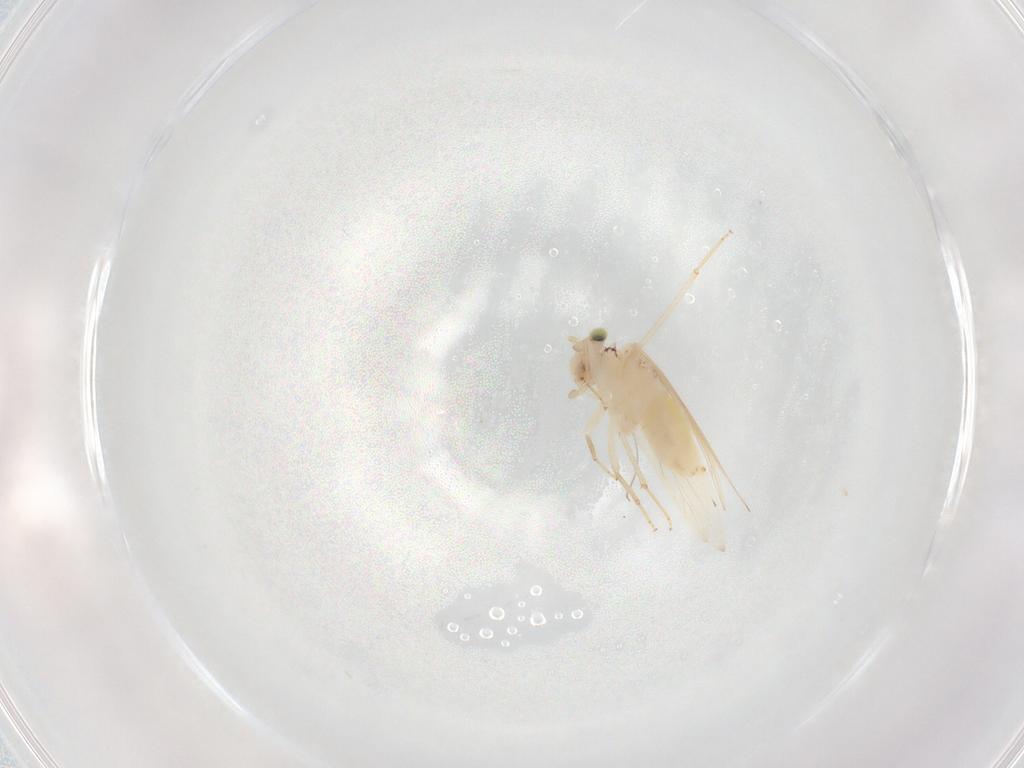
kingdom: Animalia
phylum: Arthropoda
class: Insecta
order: Psocodea
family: Lepidopsocidae
